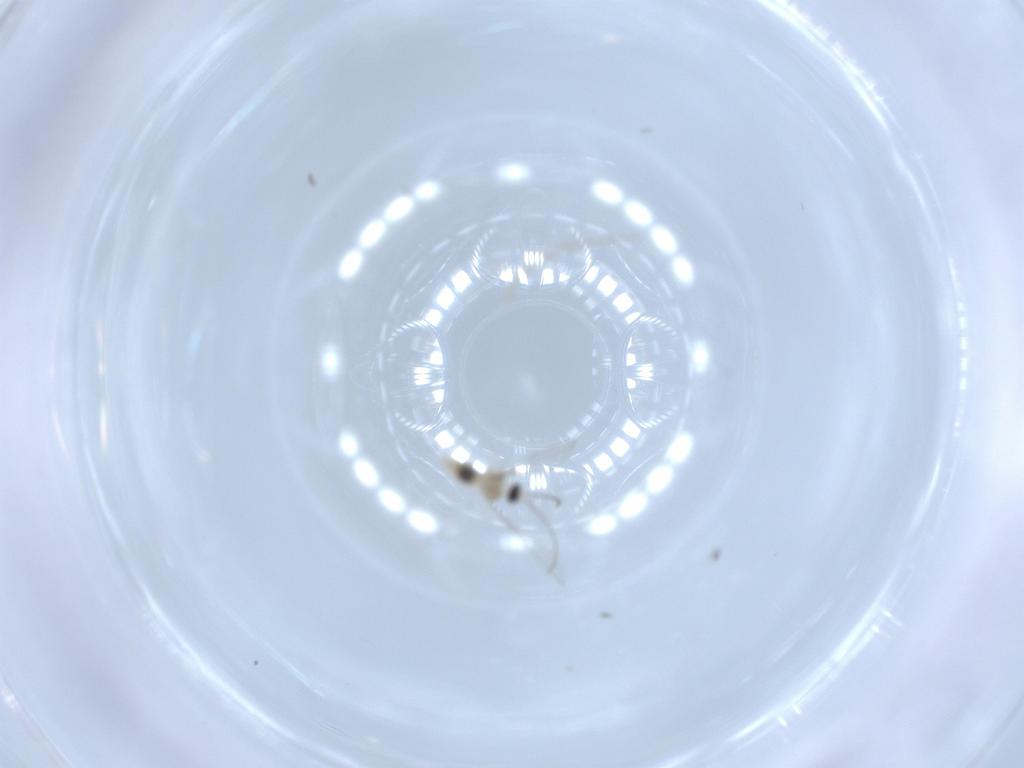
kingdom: Animalia
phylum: Arthropoda
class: Insecta
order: Diptera
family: Cecidomyiidae
